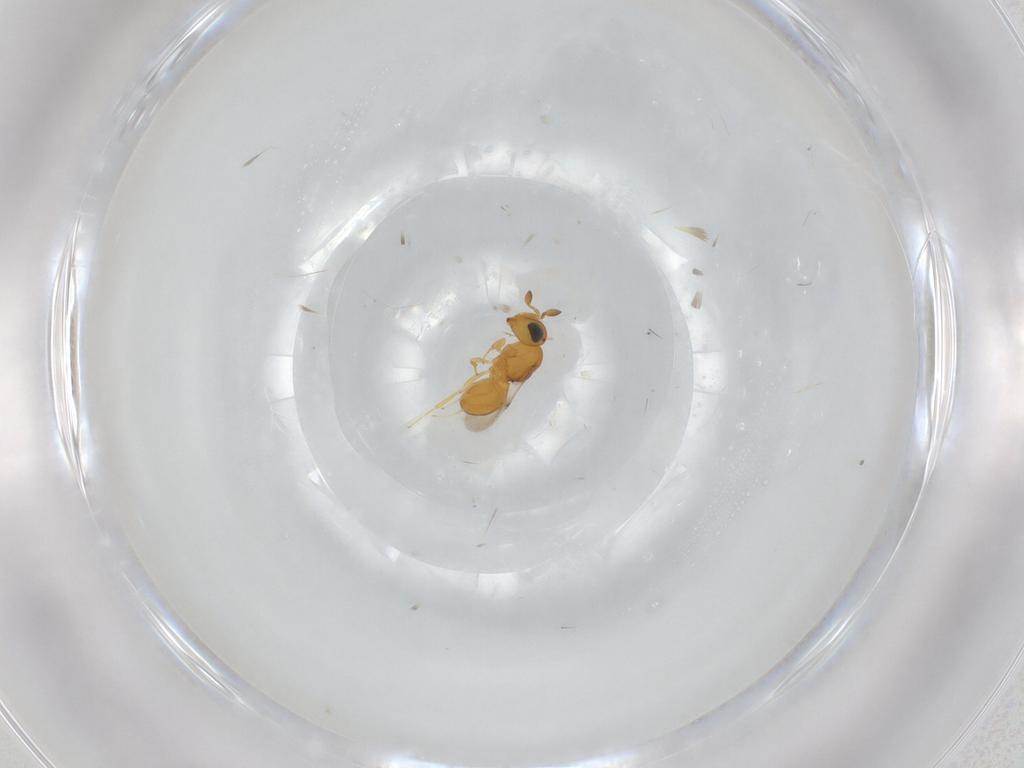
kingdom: Animalia
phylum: Arthropoda
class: Insecta
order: Hymenoptera
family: Scelionidae
